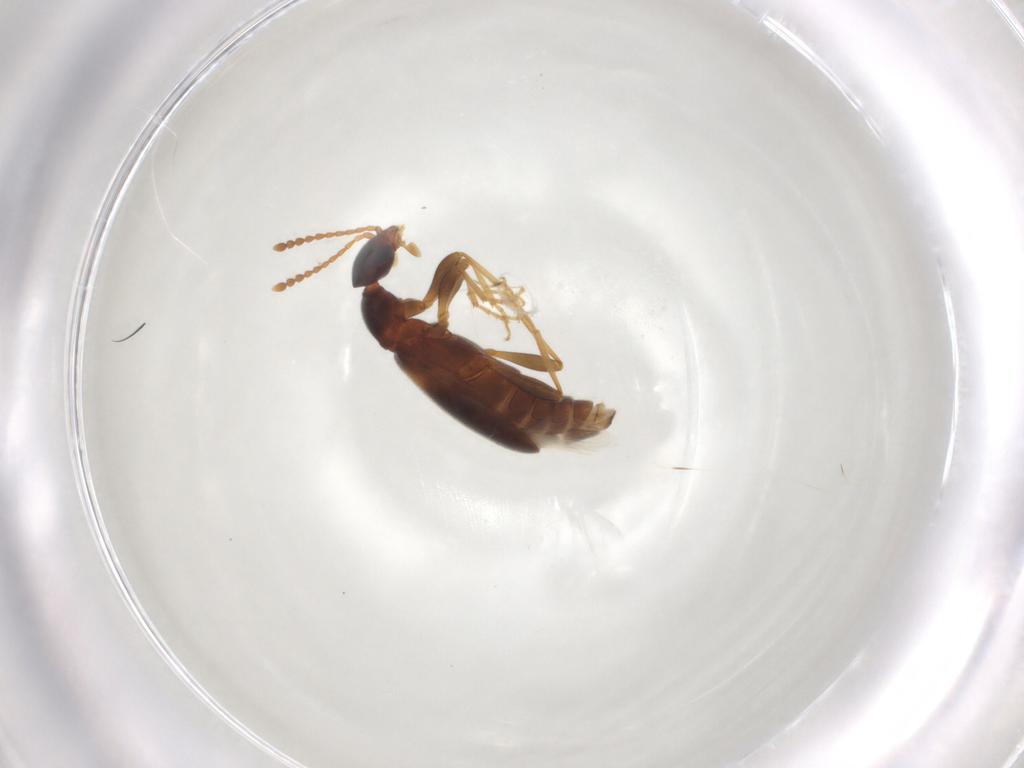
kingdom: Animalia
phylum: Arthropoda
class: Insecta
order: Coleoptera
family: Anthicidae
